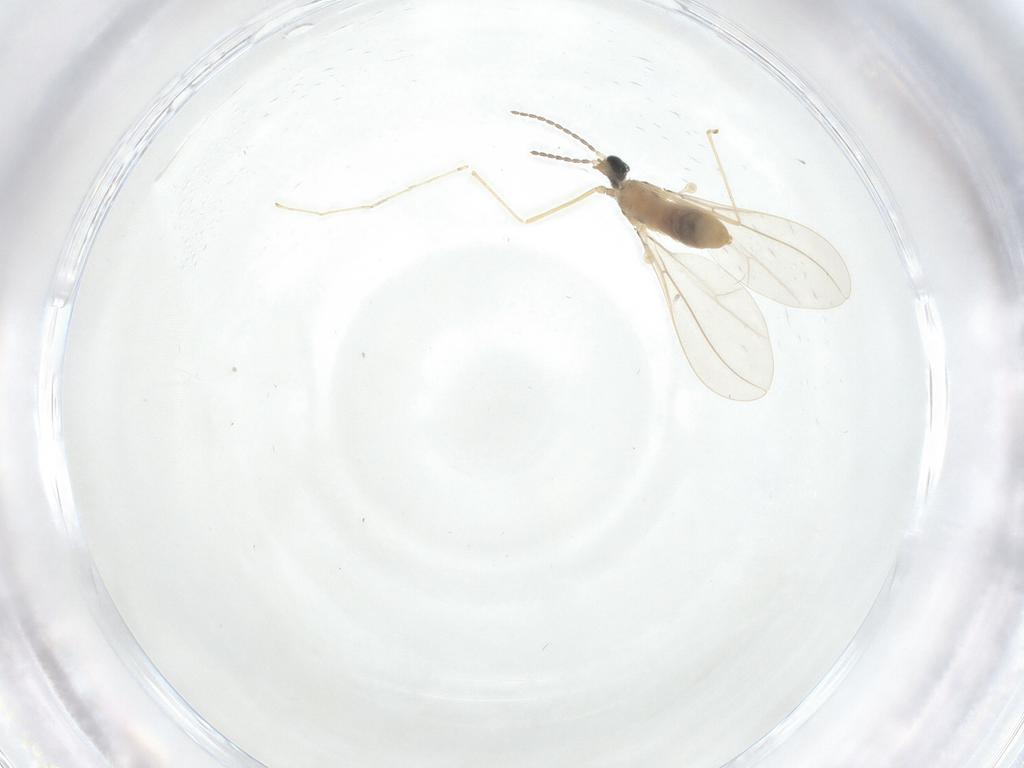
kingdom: Animalia
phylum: Arthropoda
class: Insecta
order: Diptera
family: Cecidomyiidae
